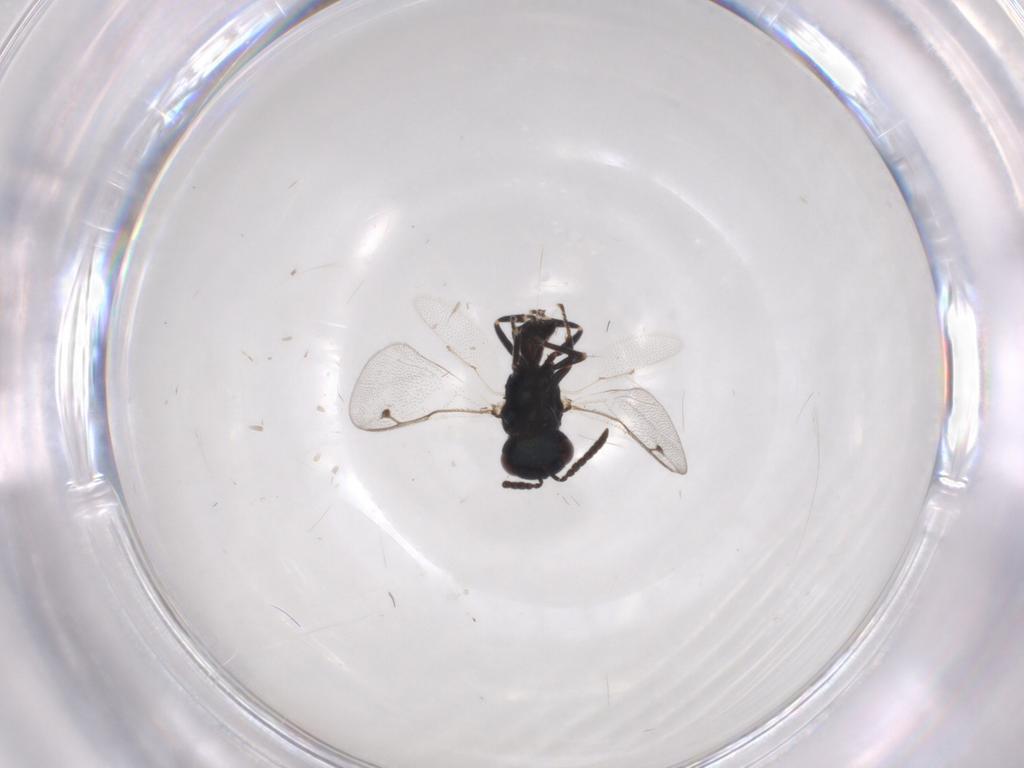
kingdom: Animalia
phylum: Arthropoda
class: Insecta
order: Hymenoptera
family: Pteromalidae
